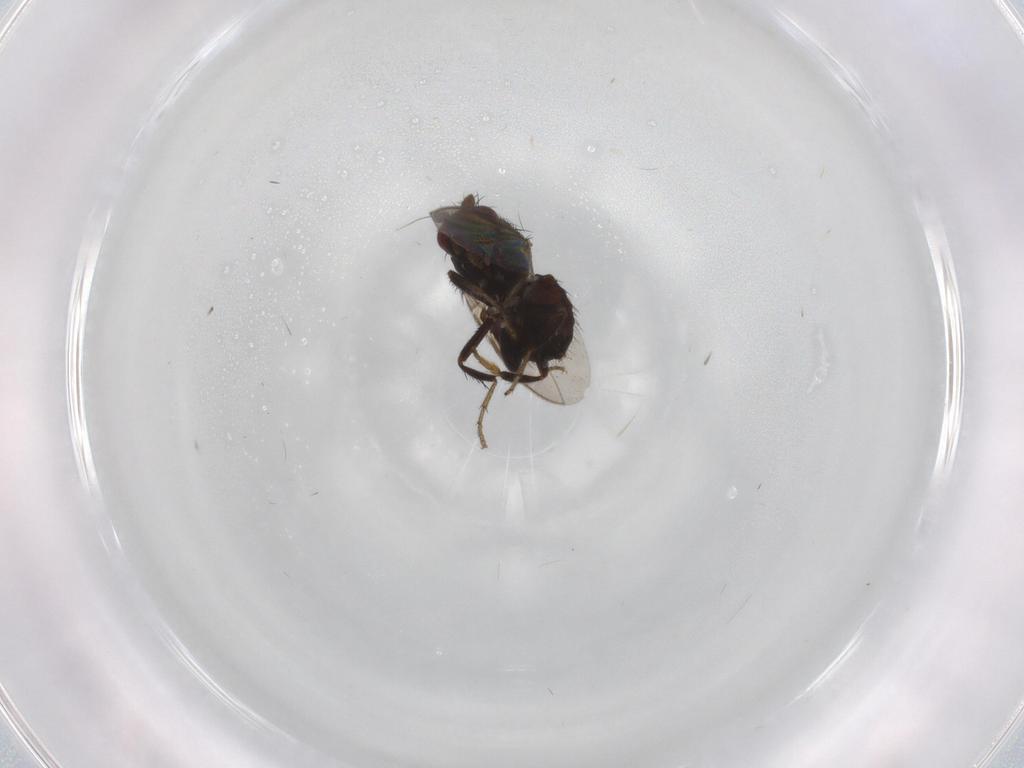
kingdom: Animalia
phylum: Arthropoda
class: Insecta
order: Diptera
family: Sphaeroceridae
